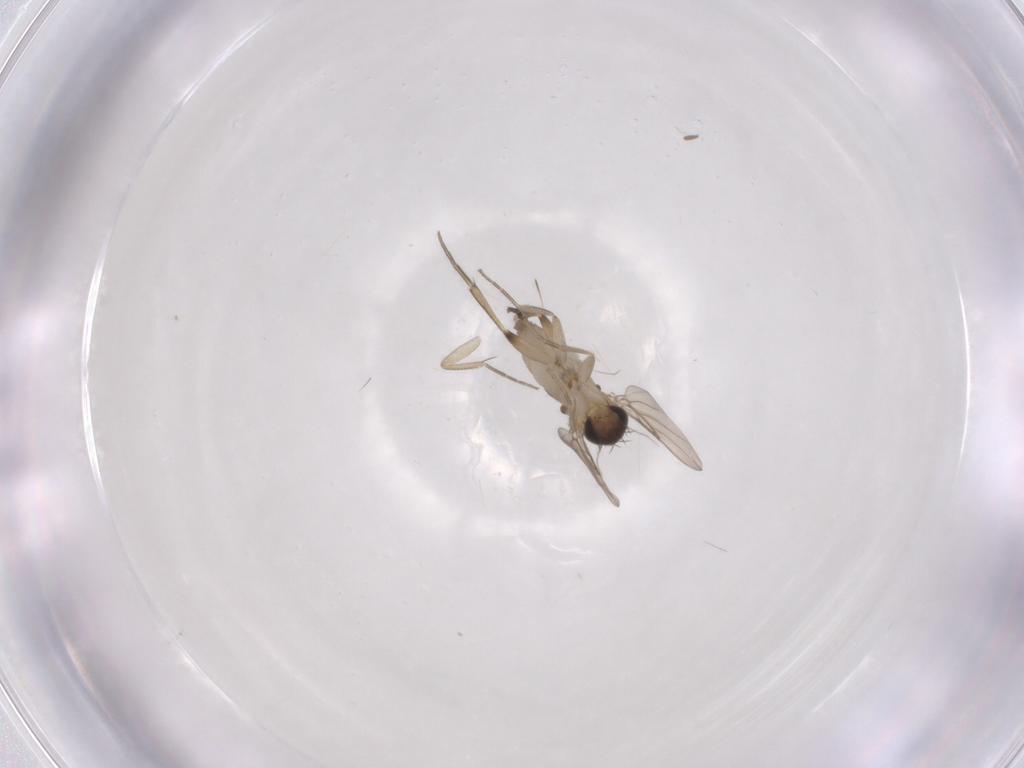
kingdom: Animalia
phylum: Arthropoda
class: Insecta
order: Diptera
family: Phoridae
